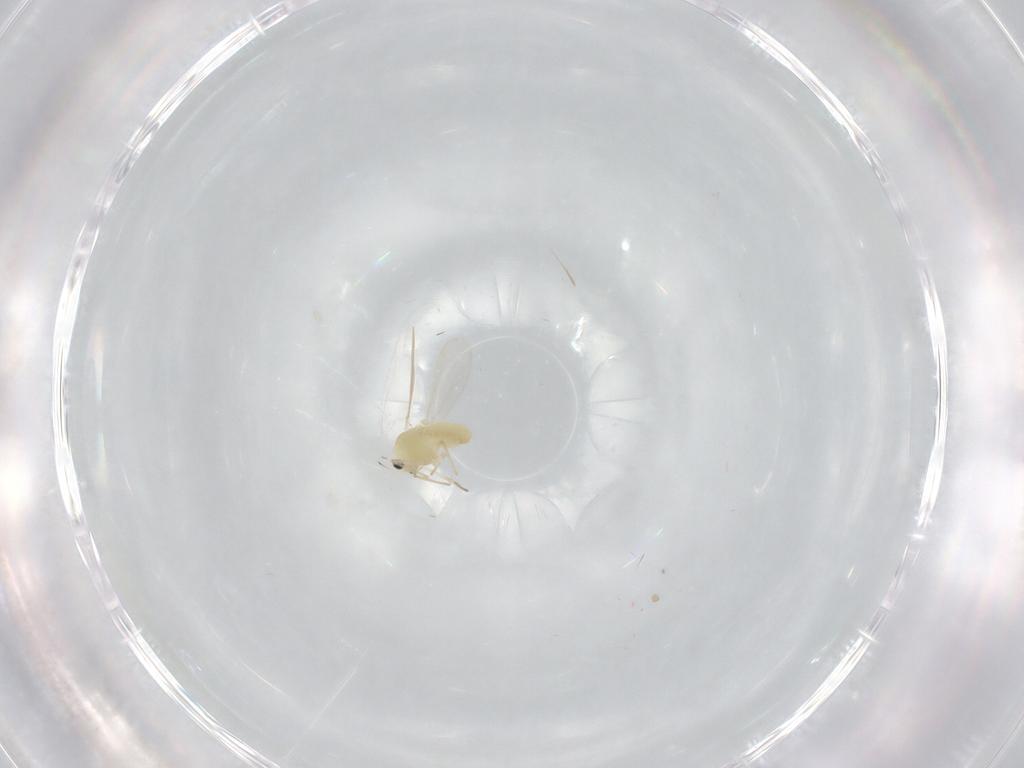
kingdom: Animalia
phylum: Arthropoda
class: Insecta
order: Diptera
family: Chironomidae
